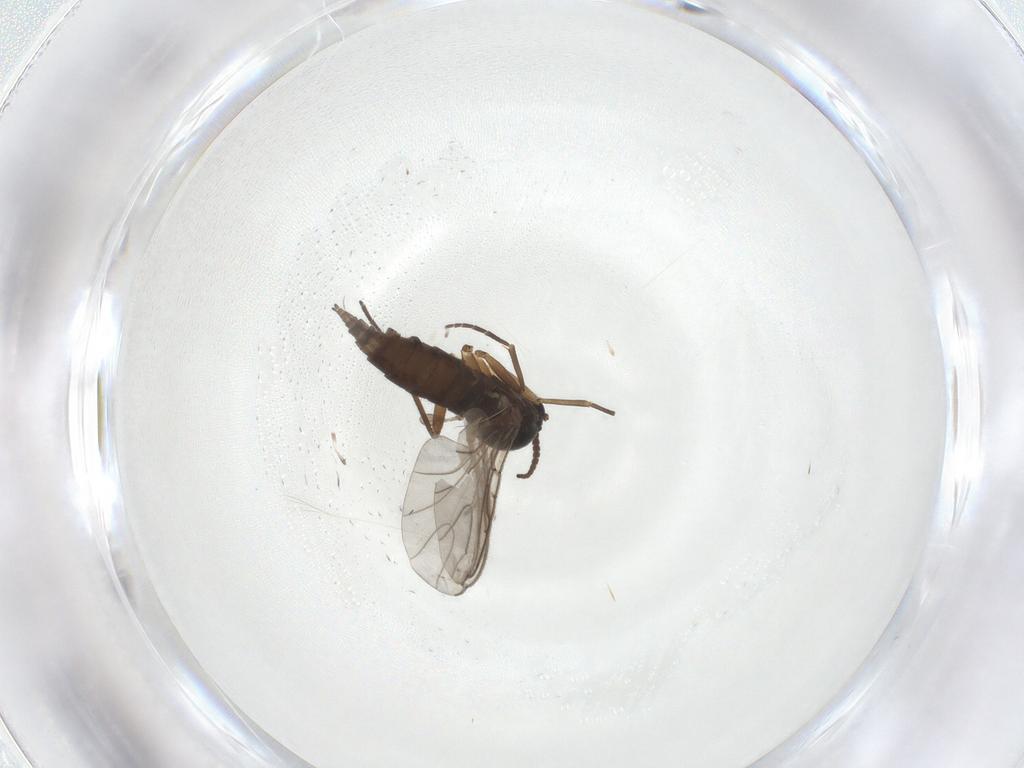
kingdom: Animalia
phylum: Arthropoda
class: Insecta
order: Diptera
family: Sciaridae
